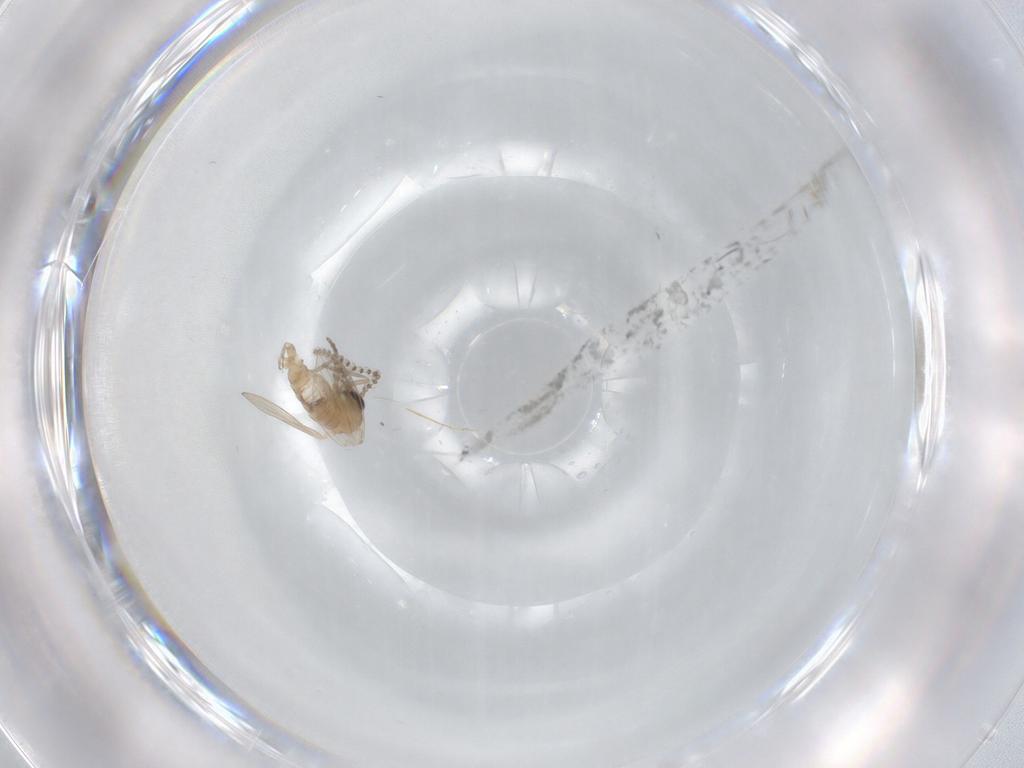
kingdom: Animalia
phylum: Arthropoda
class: Insecta
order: Diptera
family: Psychodidae
